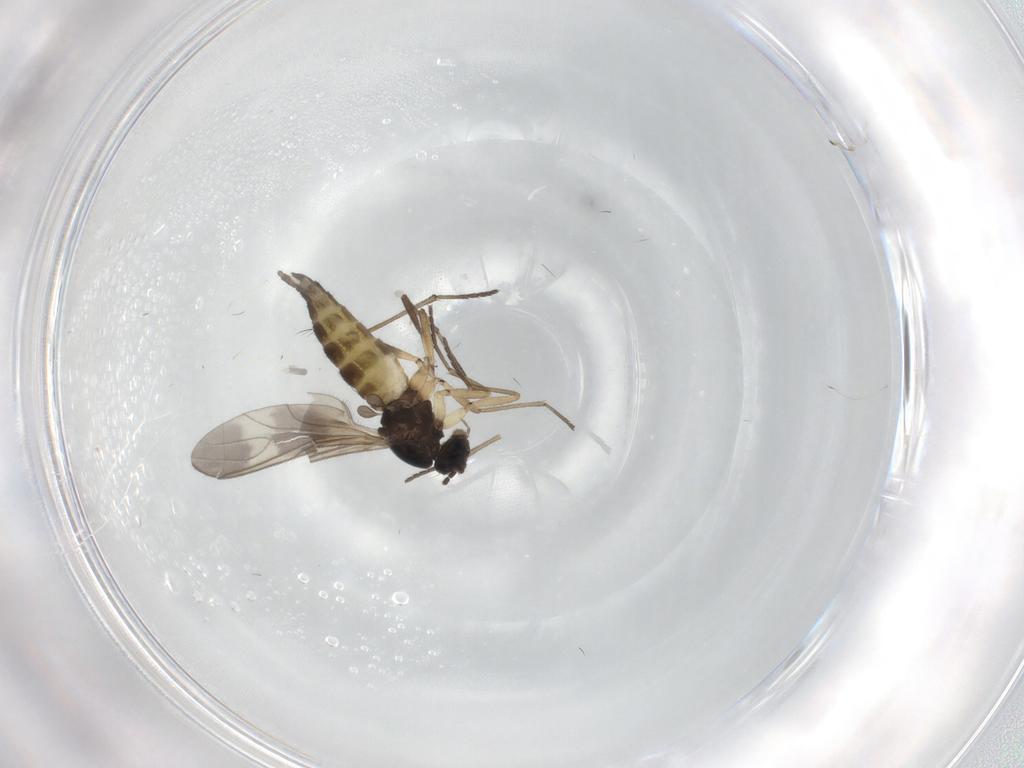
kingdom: Animalia
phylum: Arthropoda
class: Insecta
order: Diptera
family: Sciaridae
